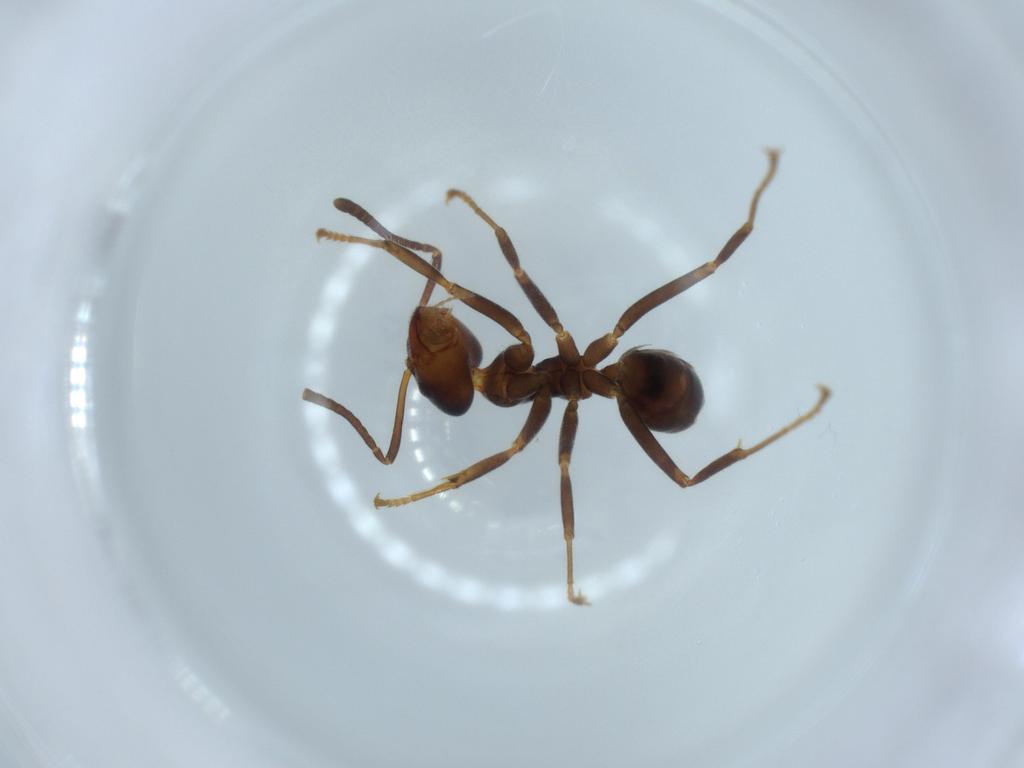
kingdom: Animalia
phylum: Arthropoda
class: Insecta
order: Hymenoptera
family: Formicidae
